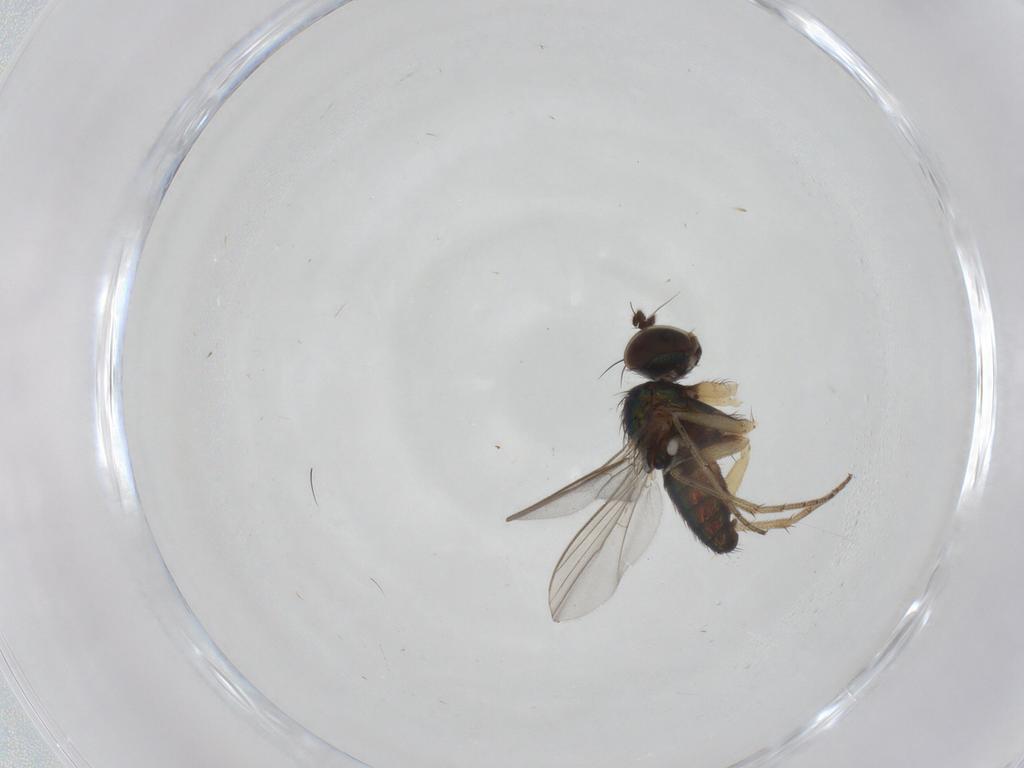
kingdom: Animalia
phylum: Arthropoda
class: Insecta
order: Diptera
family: Dolichopodidae
